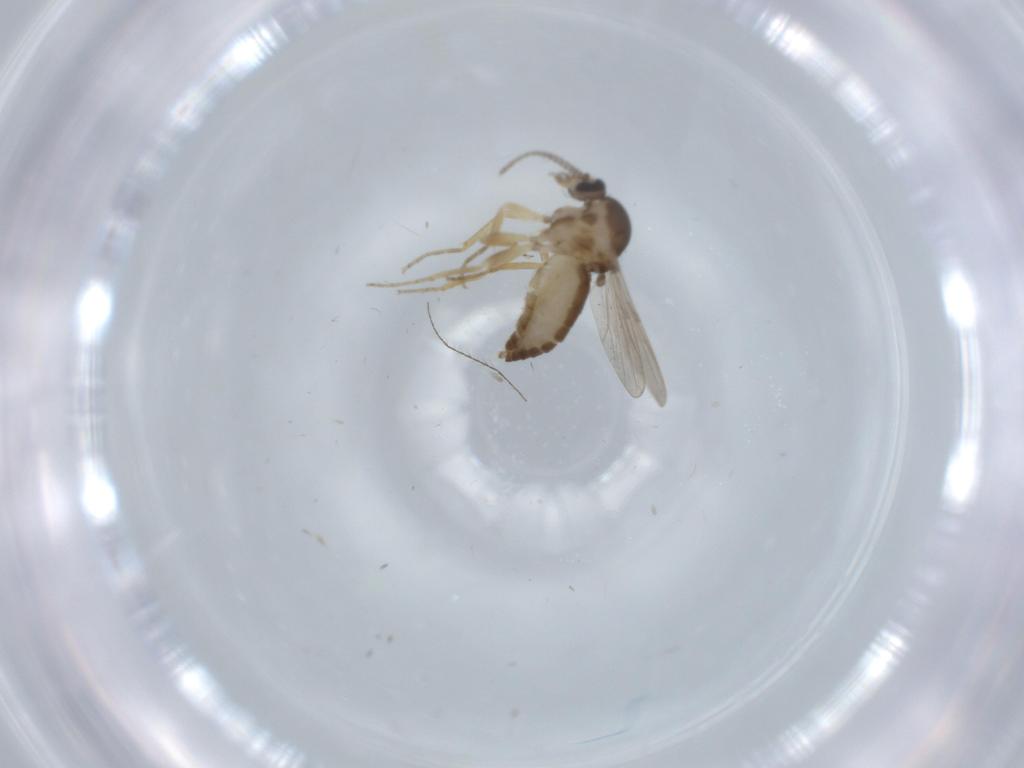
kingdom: Animalia
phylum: Arthropoda
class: Insecta
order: Diptera
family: Ceratopogonidae
